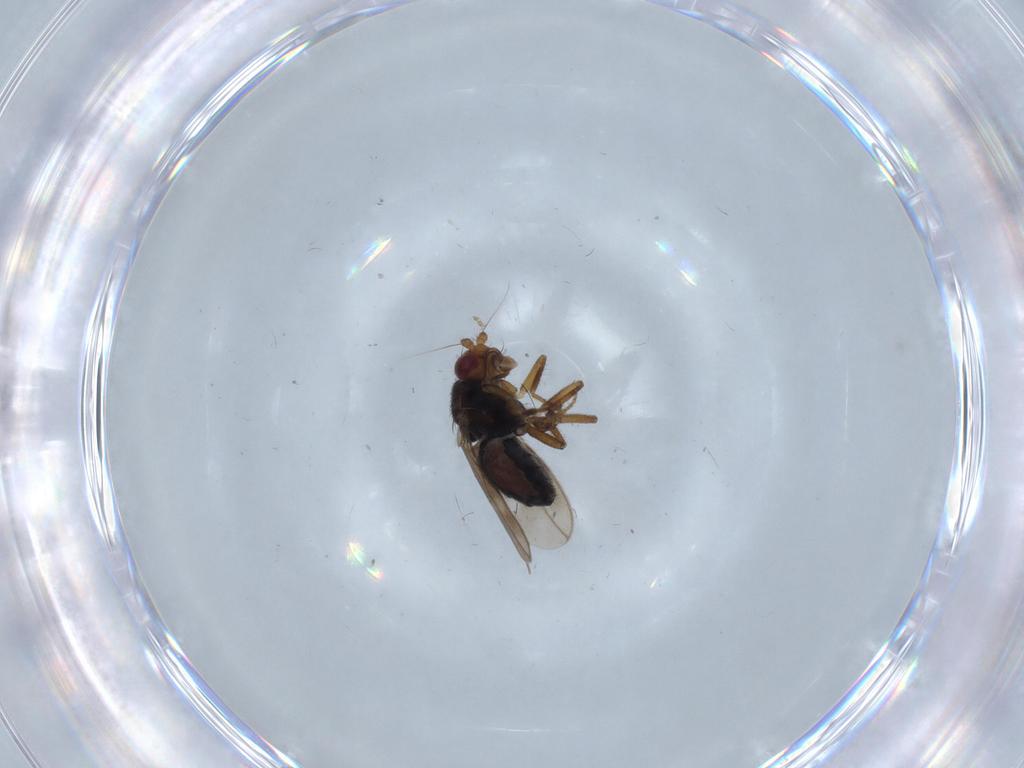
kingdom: Animalia
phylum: Arthropoda
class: Insecta
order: Diptera
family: Sphaeroceridae
